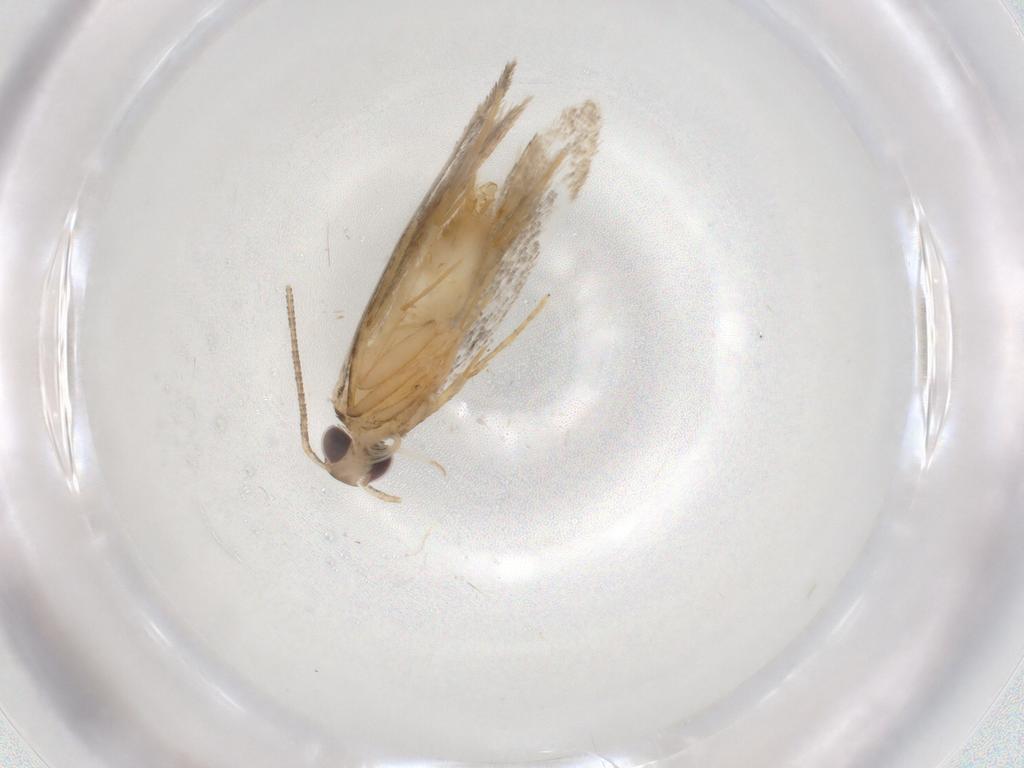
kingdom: Animalia
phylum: Arthropoda
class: Insecta
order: Lepidoptera
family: Autostichidae
